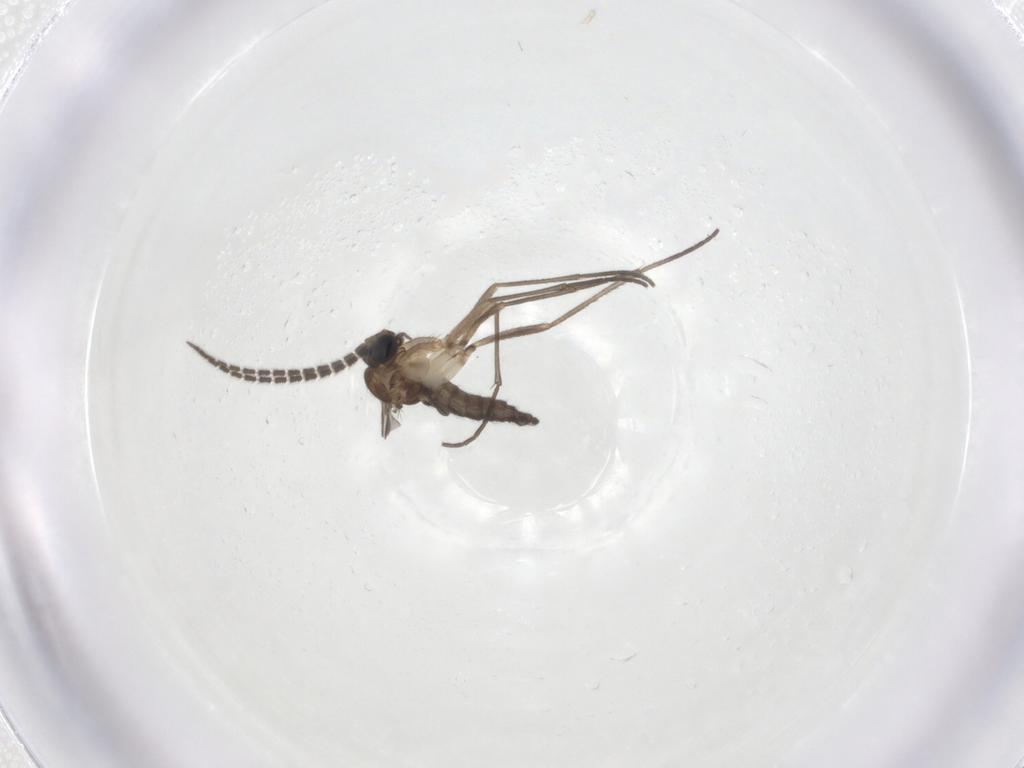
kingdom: Animalia
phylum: Arthropoda
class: Insecta
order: Diptera
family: Sciaridae
